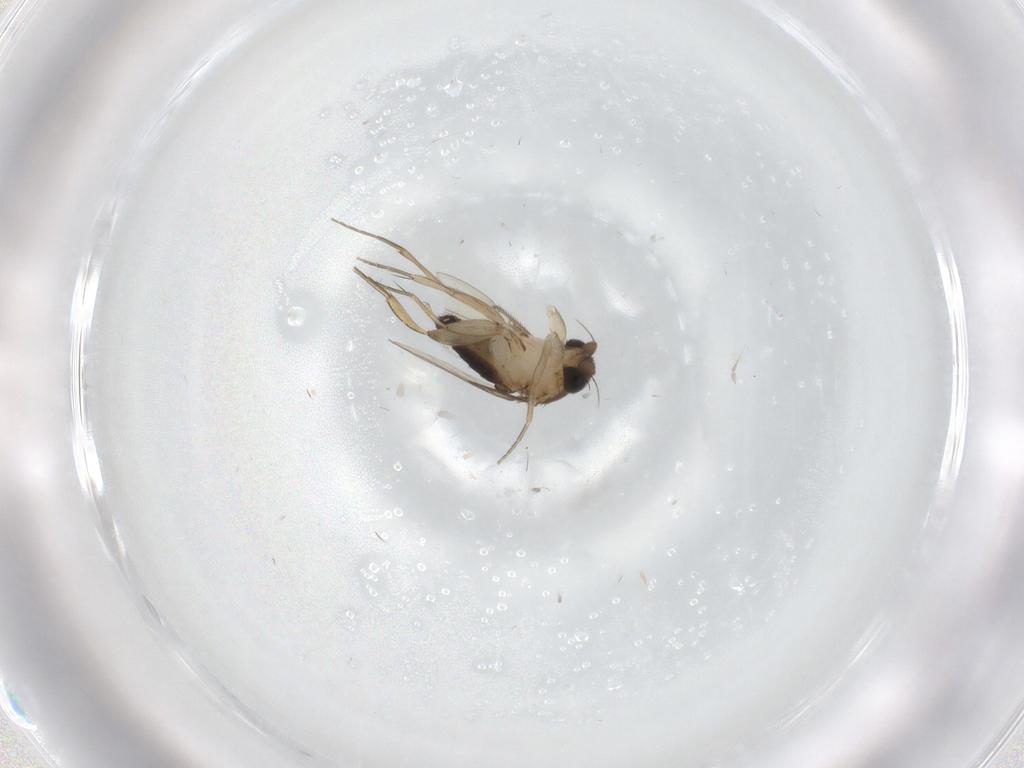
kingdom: Animalia
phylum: Arthropoda
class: Insecta
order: Diptera
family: Phoridae
